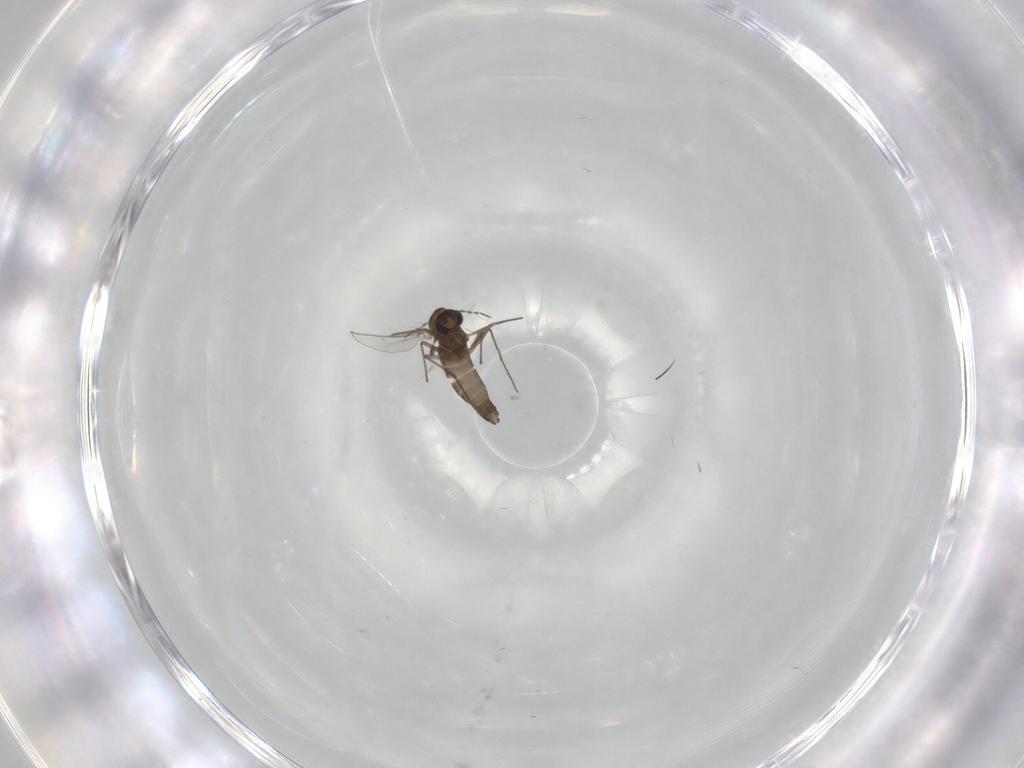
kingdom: Animalia
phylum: Arthropoda
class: Insecta
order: Diptera
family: Chironomidae
